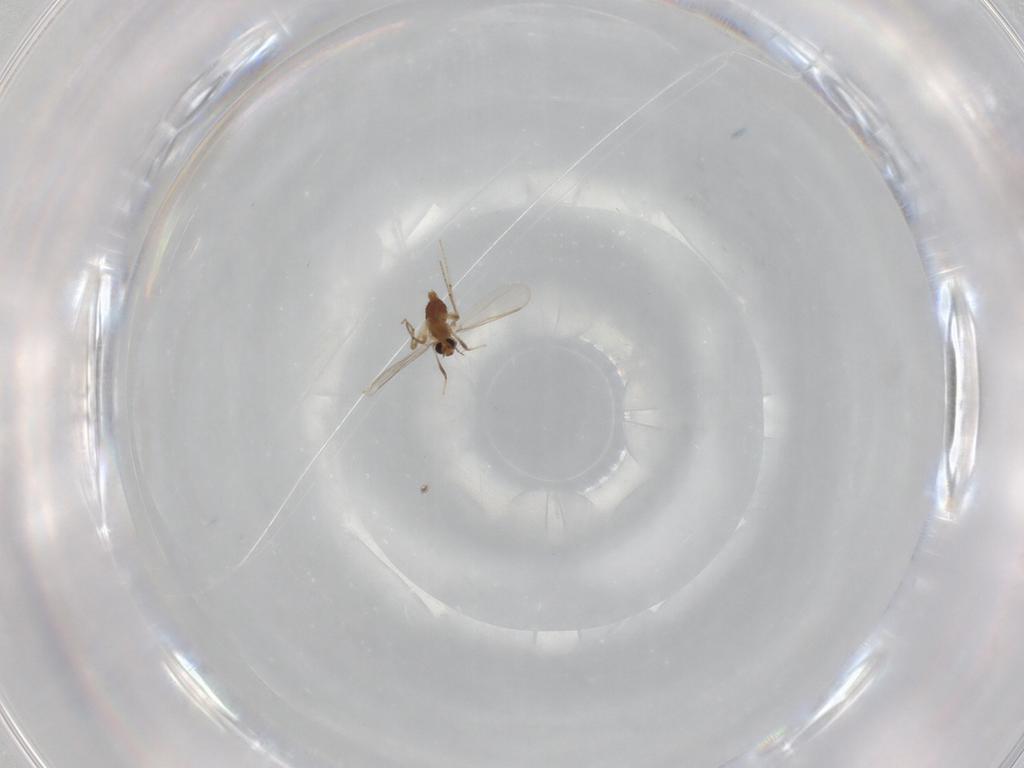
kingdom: Animalia
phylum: Arthropoda
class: Insecta
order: Diptera
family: Chironomidae
